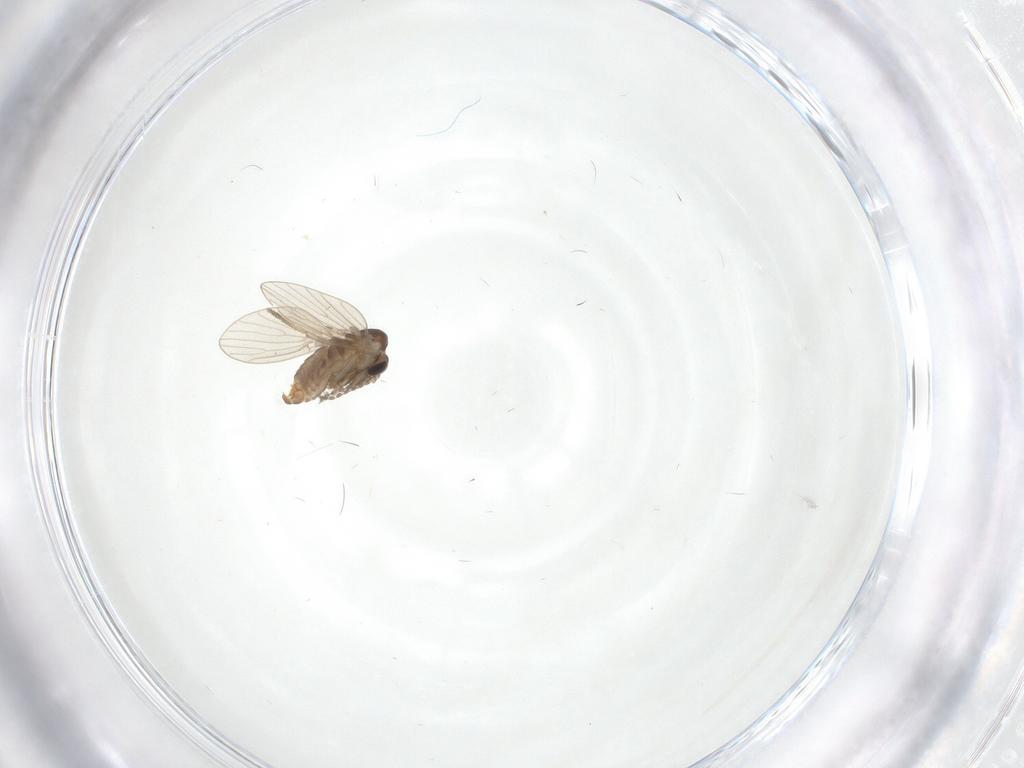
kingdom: Animalia
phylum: Arthropoda
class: Insecta
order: Diptera
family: Chironomidae
